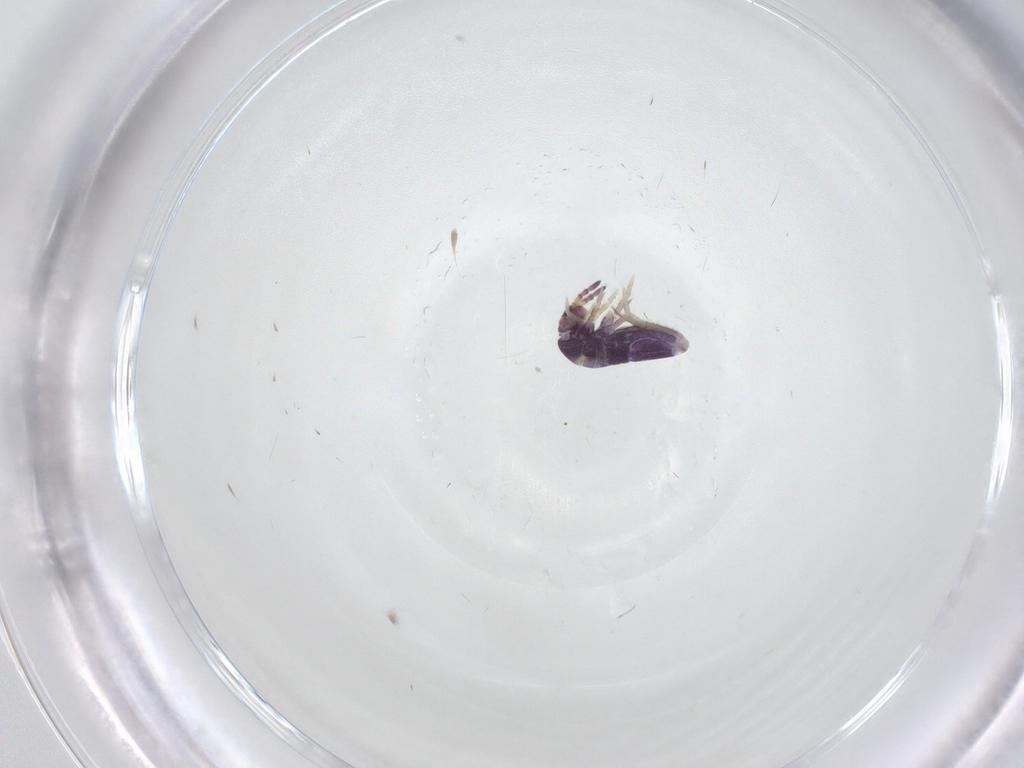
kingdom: Animalia
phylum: Arthropoda
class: Collembola
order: Entomobryomorpha
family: Entomobryidae
